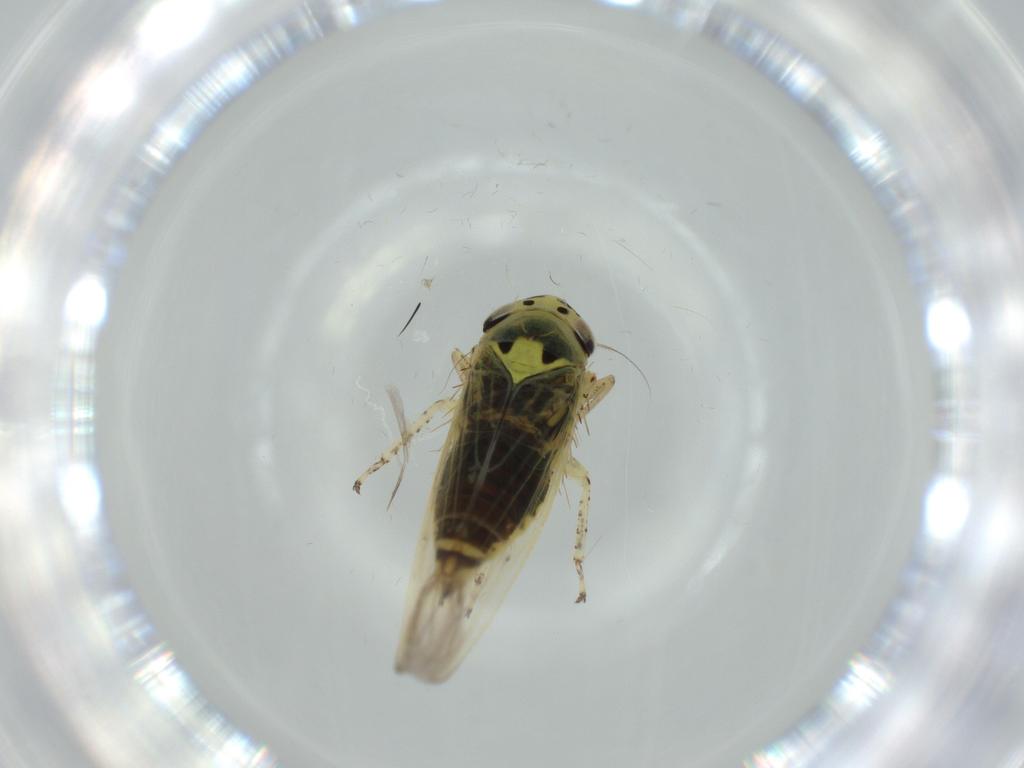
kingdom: Animalia
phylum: Arthropoda
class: Insecta
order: Hemiptera
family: Cicadellidae
